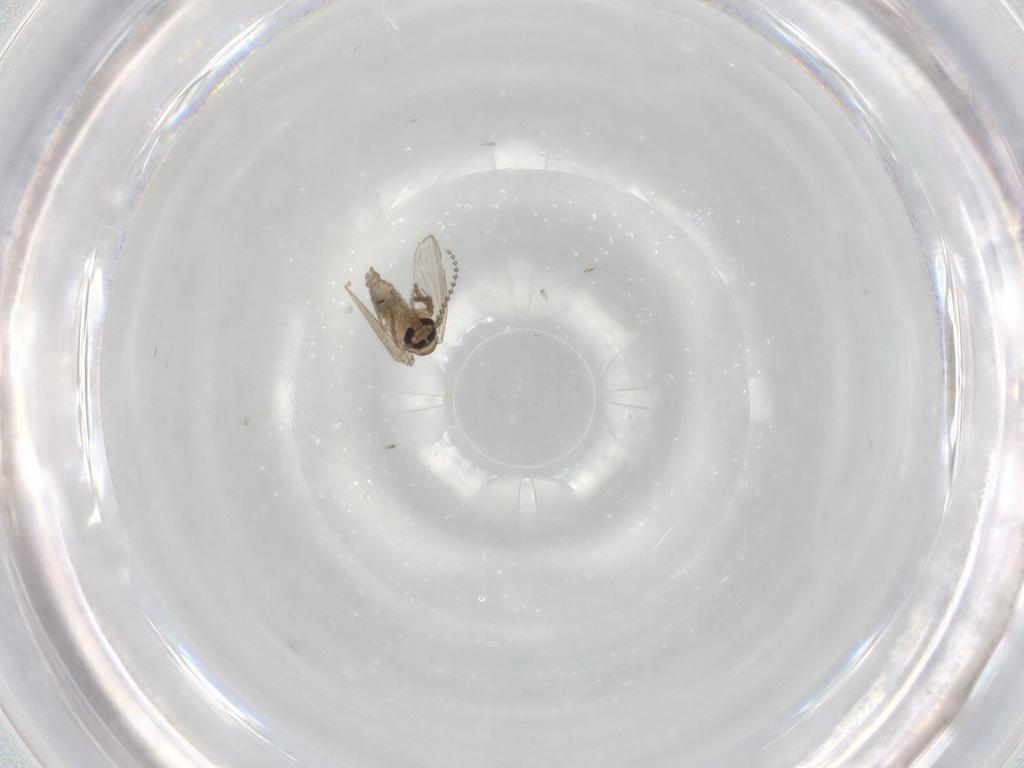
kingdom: Animalia
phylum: Arthropoda
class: Insecta
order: Diptera
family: Psychodidae
